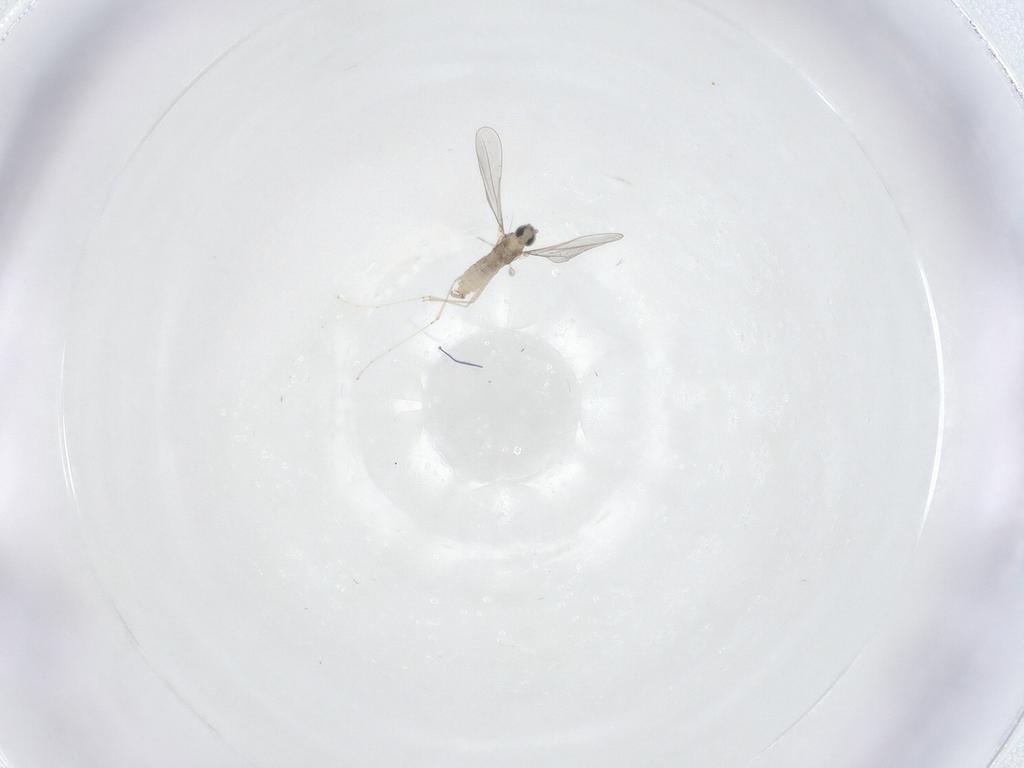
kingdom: Animalia
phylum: Arthropoda
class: Insecta
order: Diptera
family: Cecidomyiidae
